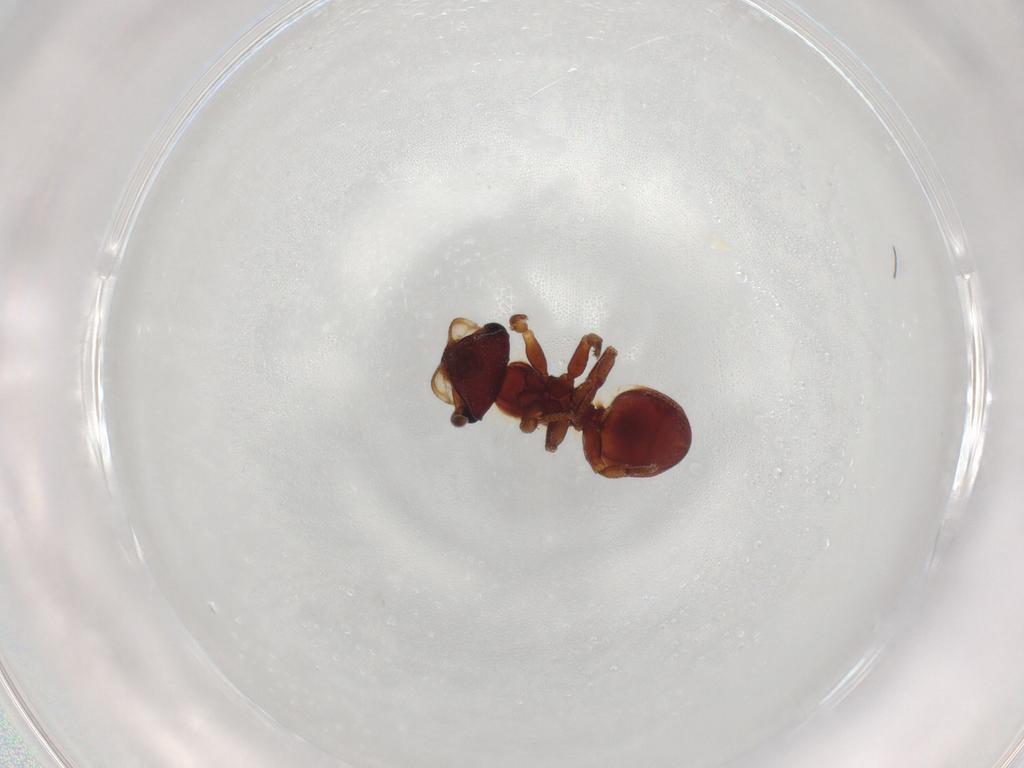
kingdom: Animalia
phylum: Arthropoda
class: Insecta
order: Hymenoptera
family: Formicidae
